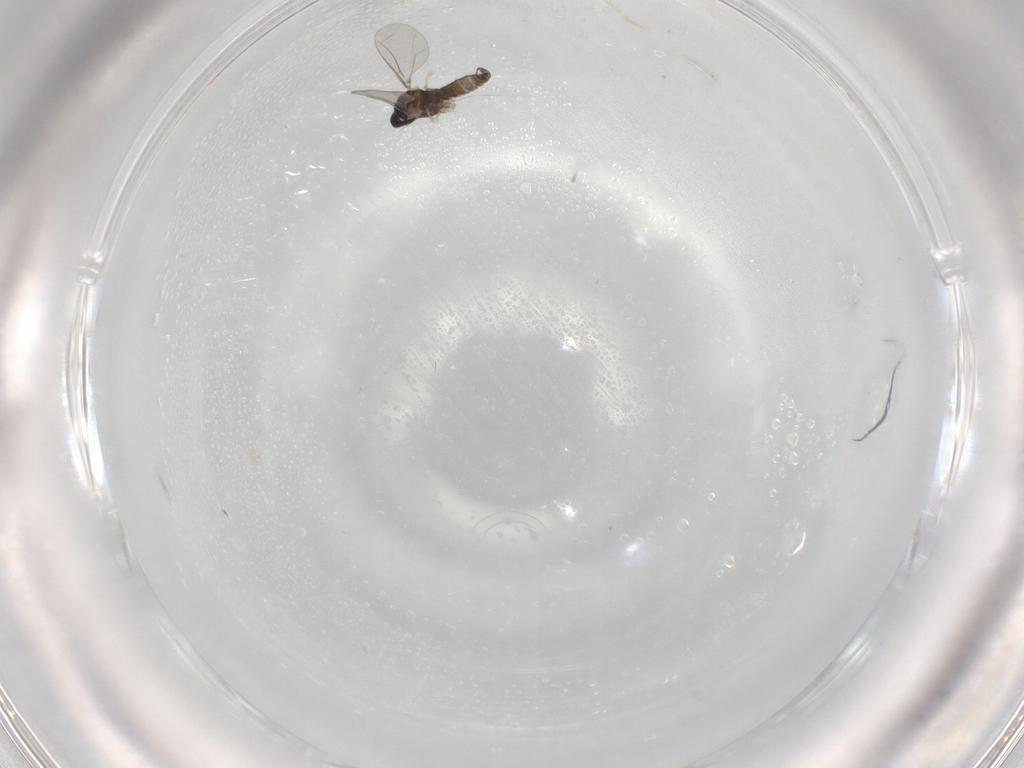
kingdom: Animalia
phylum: Arthropoda
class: Insecta
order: Diptera
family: Cecidomyiidae
